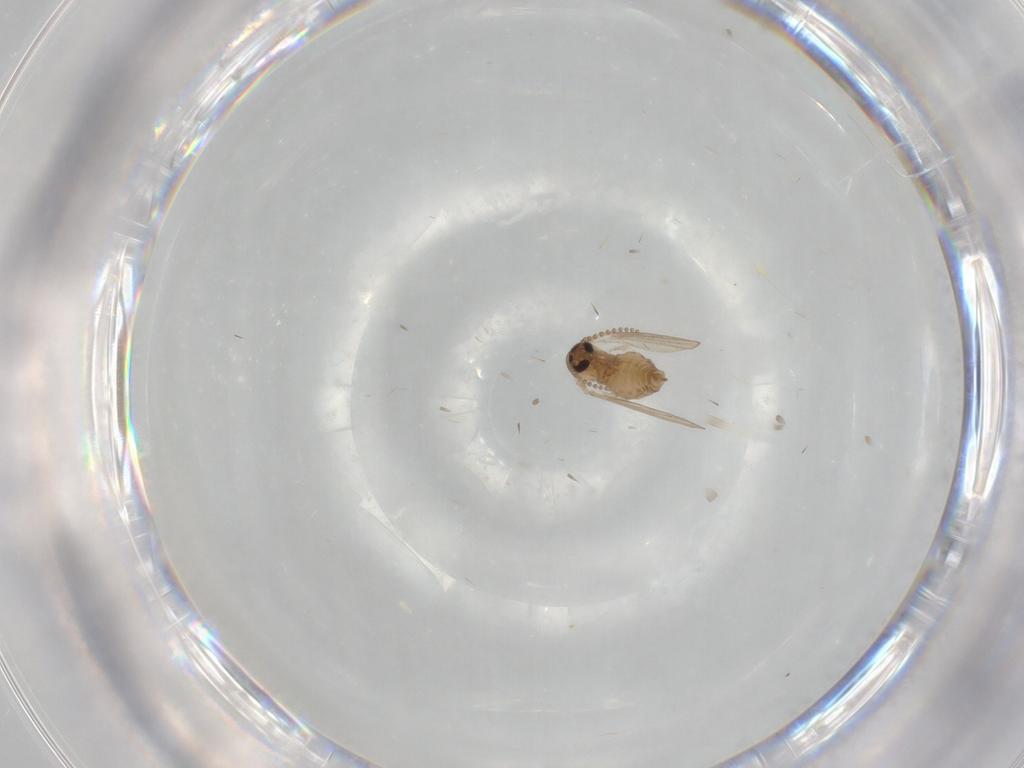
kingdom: Animalia
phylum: Arthropoda
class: Insecta
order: Diptera
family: Psychodidae
